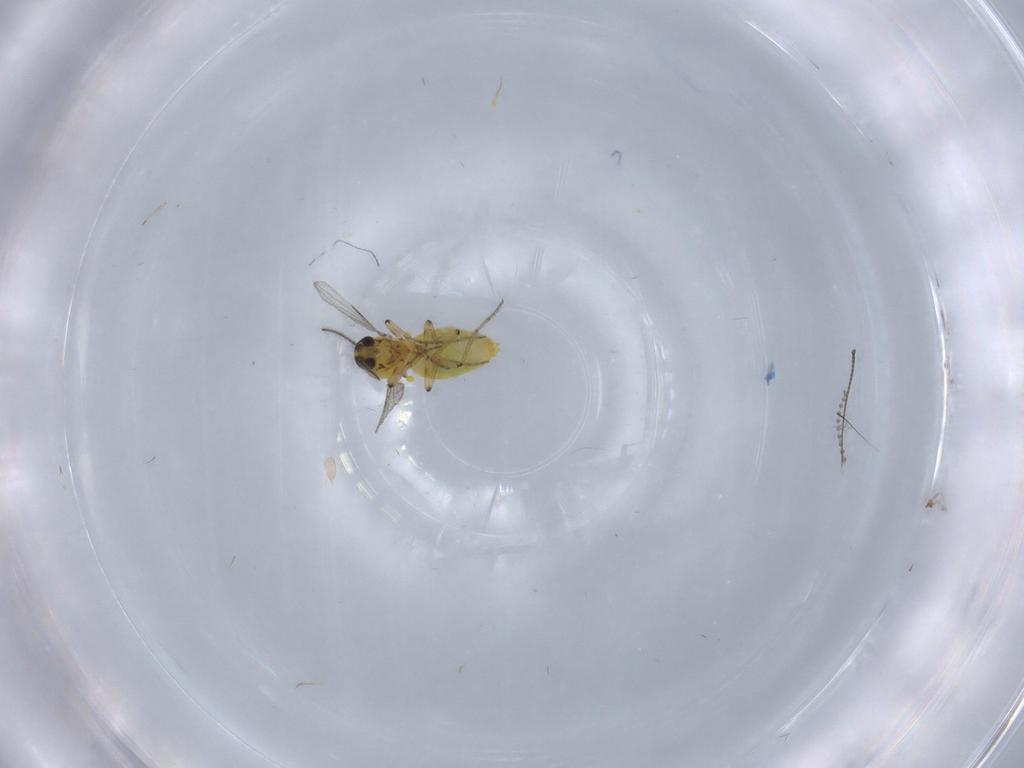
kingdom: Animalia
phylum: Arthropoda
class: Insecta
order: Diptera
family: Ceratopogonidae
